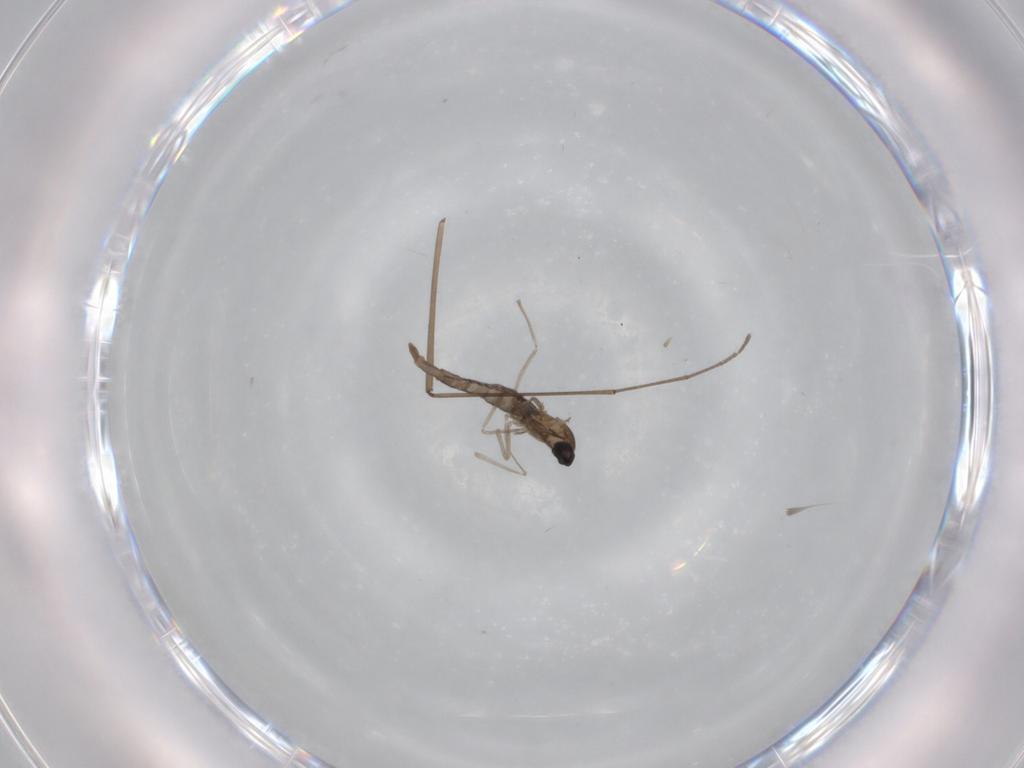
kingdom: Animalia
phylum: Arthropoda
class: Insecta
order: Diptera
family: Cecidomyiidae
